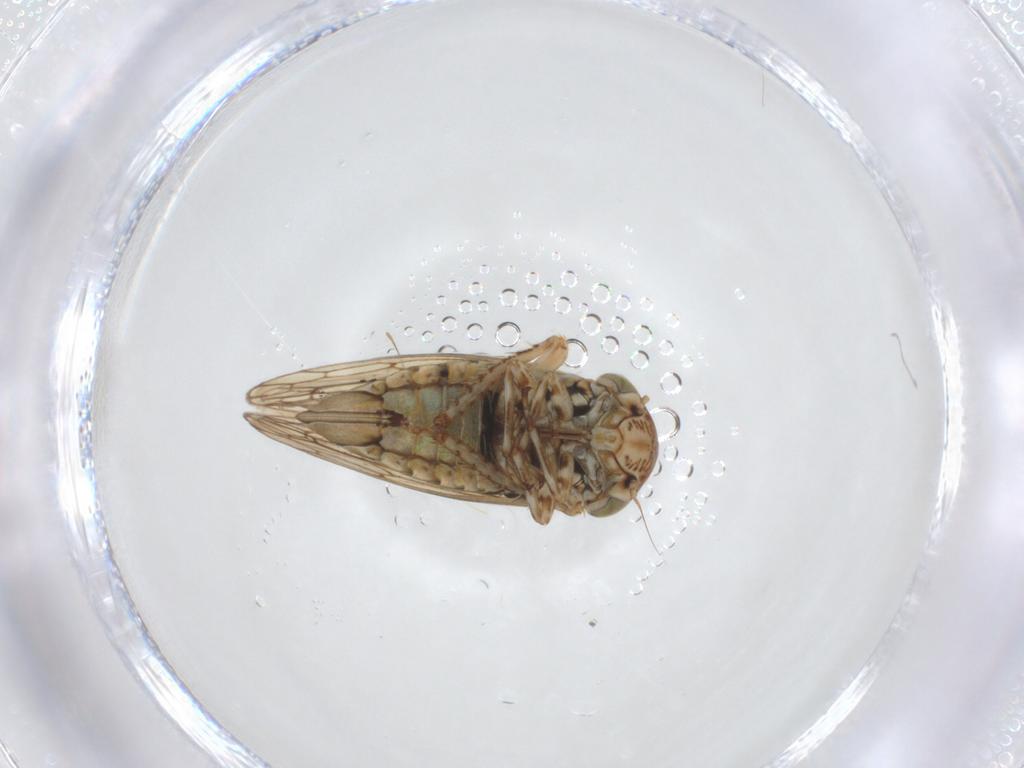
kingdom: Animalia
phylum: Arthropoda
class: Insecta
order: Hemiptera
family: Cicadellidae
